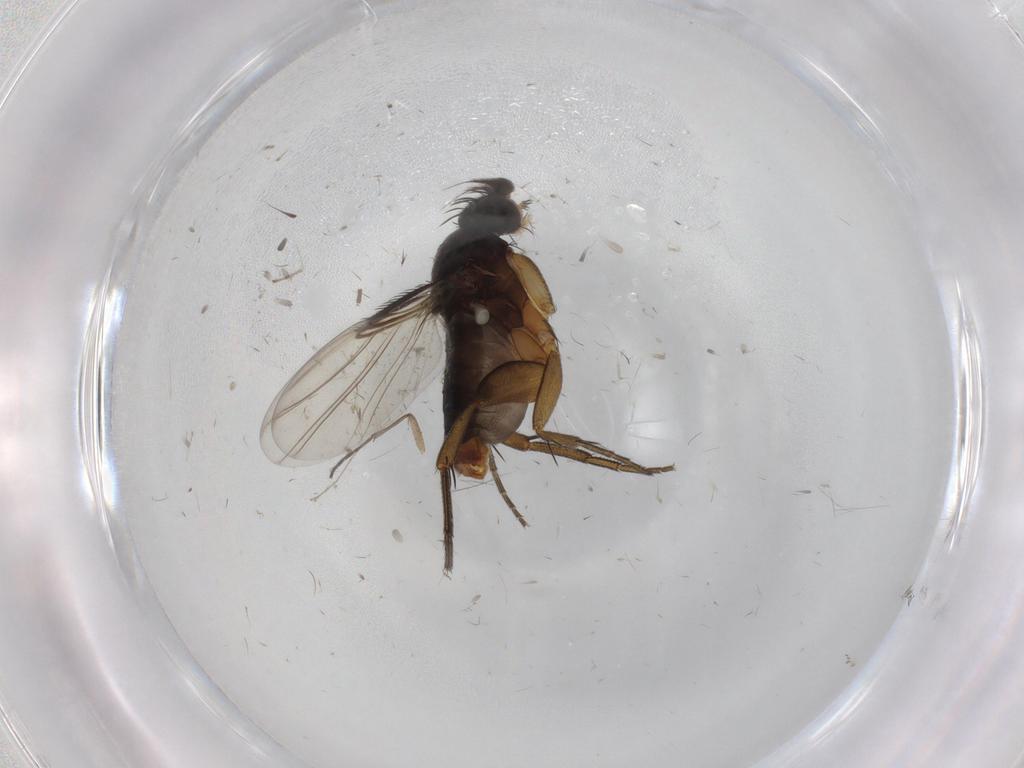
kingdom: Animalia
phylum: Arthropoda
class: Insecta
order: Diptera
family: Phoridae
